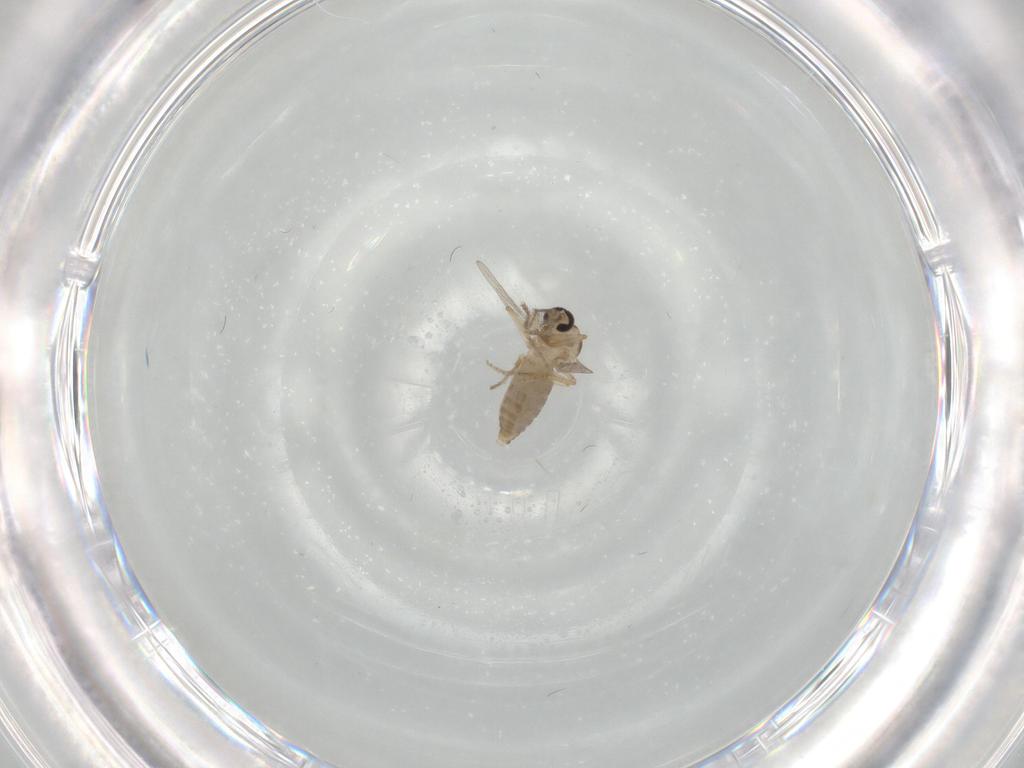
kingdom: Animalia
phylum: Arthropoda
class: Insecta
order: Diptera
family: Ceratopogonidae
